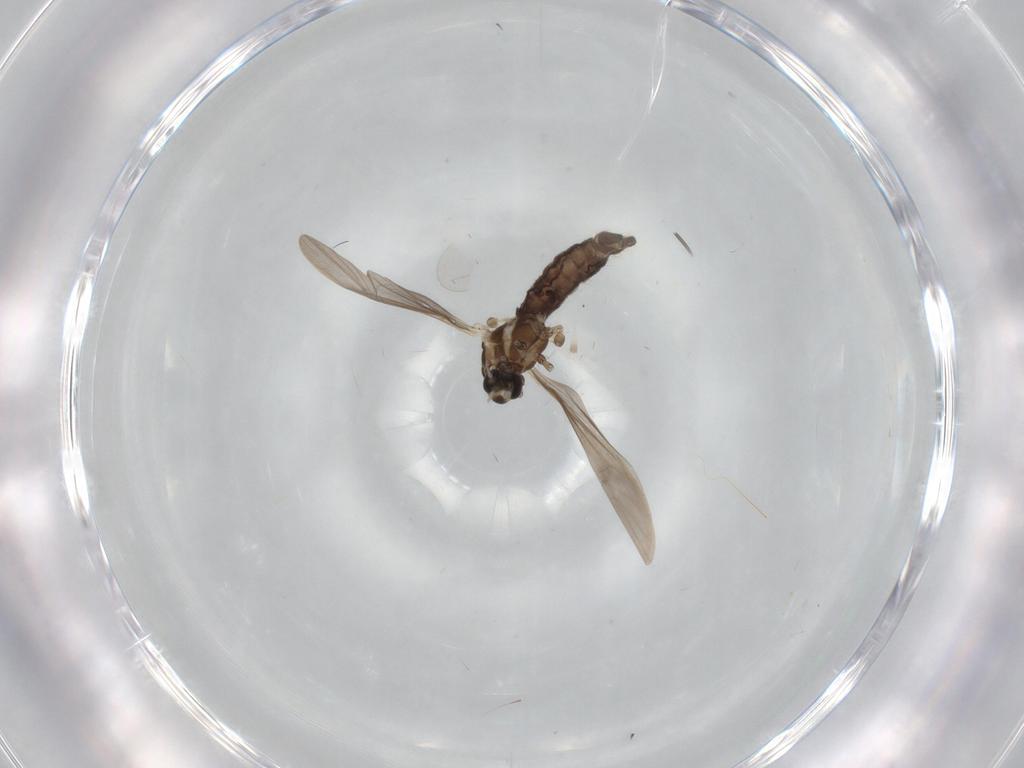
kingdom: Animalia
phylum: Arthropoda
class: Insecta
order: Diptera
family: Limoniidae
